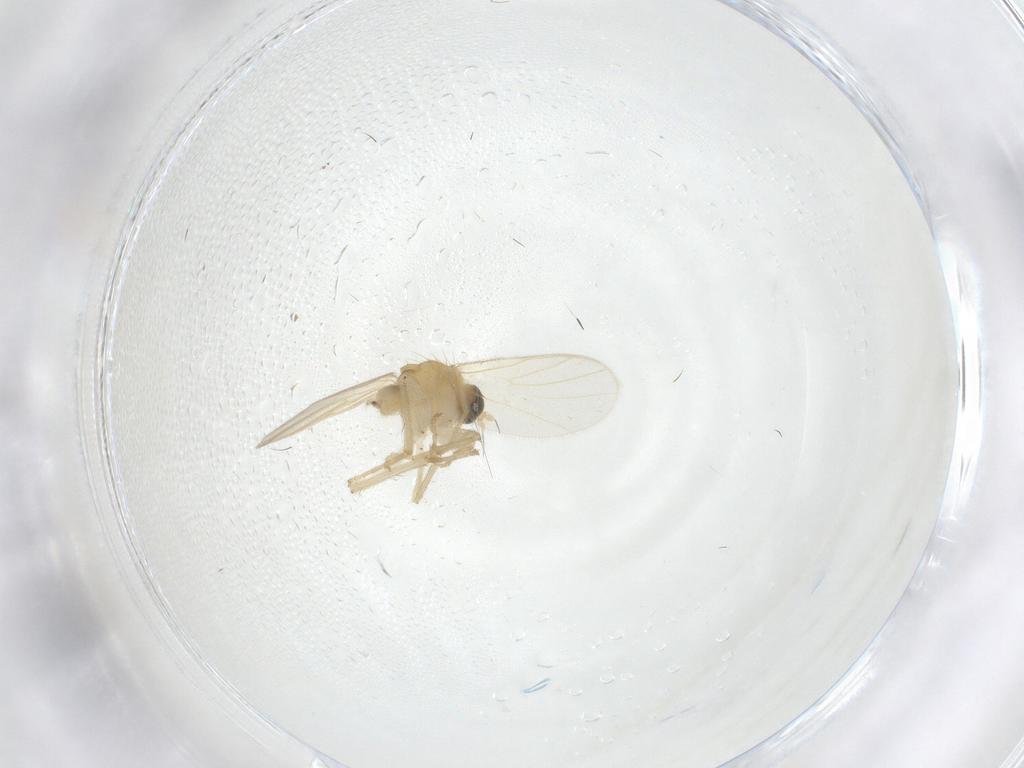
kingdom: Animalia
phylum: Arthropoda
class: Insecta
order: Diptera
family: Hybotidae
